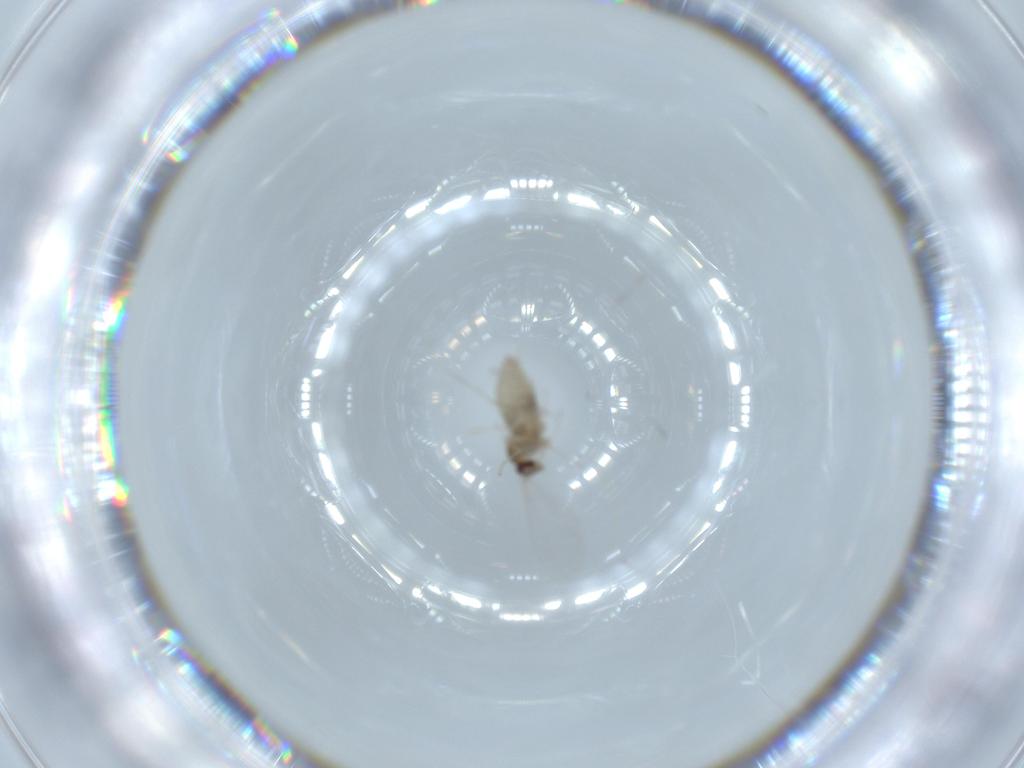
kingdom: Animalia
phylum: Arthropoda
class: Insecta
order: Diptera
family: Cecidomyiidae
